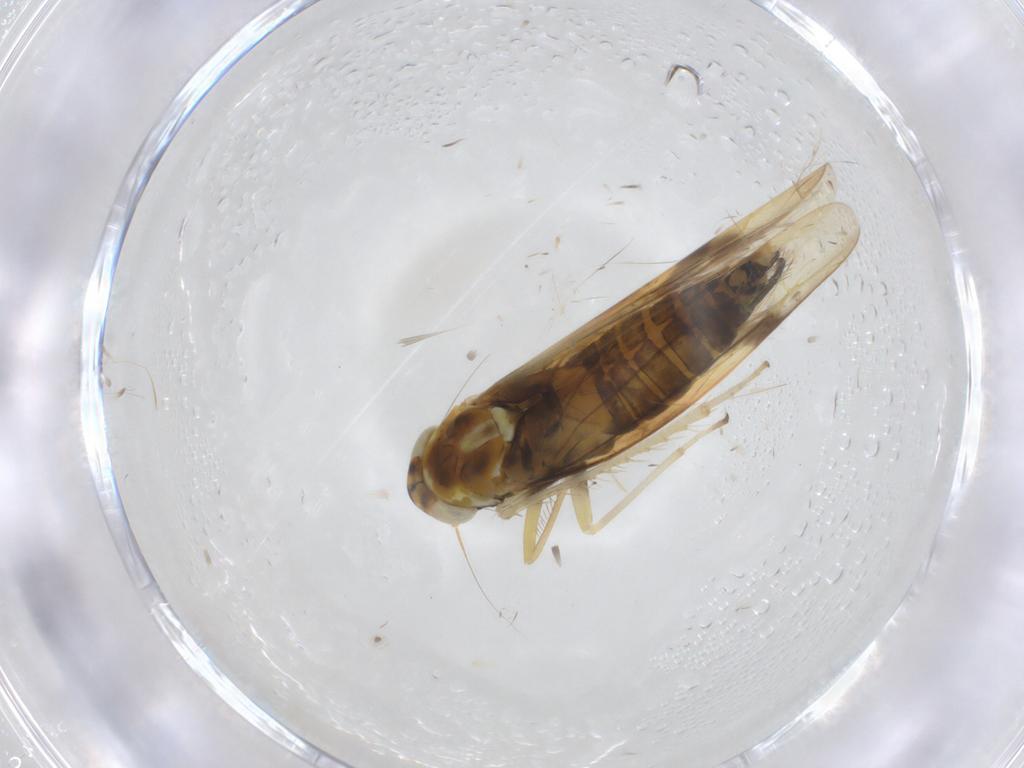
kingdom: Animalia
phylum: Arthropoda
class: Insecta
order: Hemiptera
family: Cicadellidae
